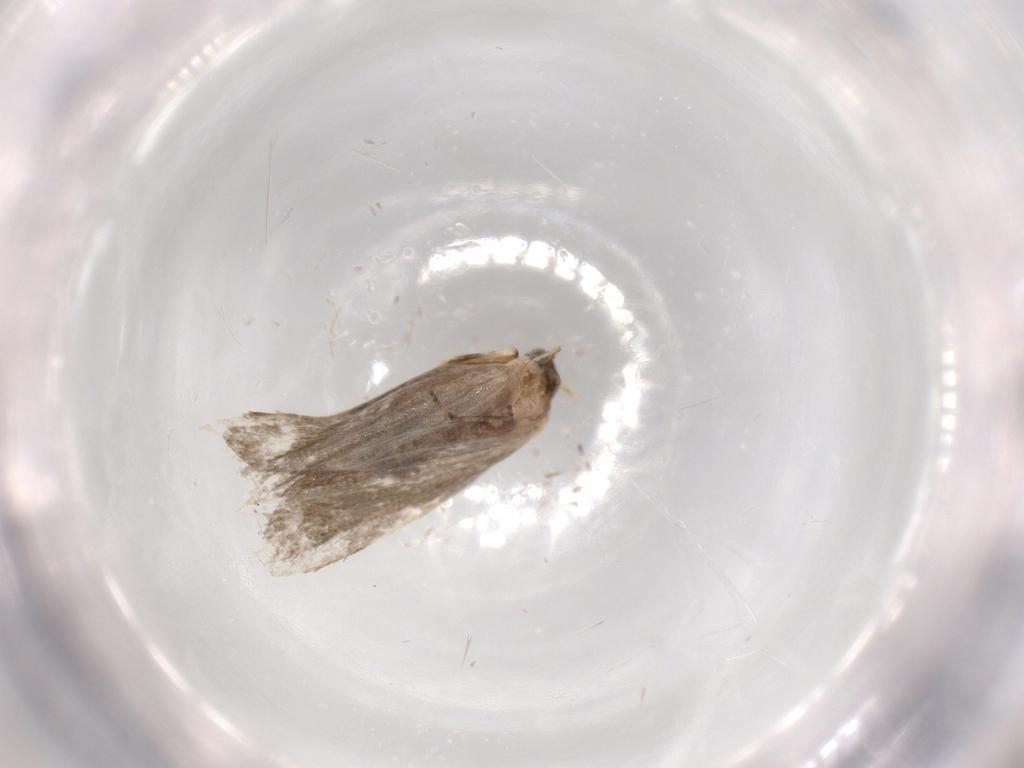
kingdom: Animalia
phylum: Arthropoda
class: Insecta
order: Lepidoptera
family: Tineidae
